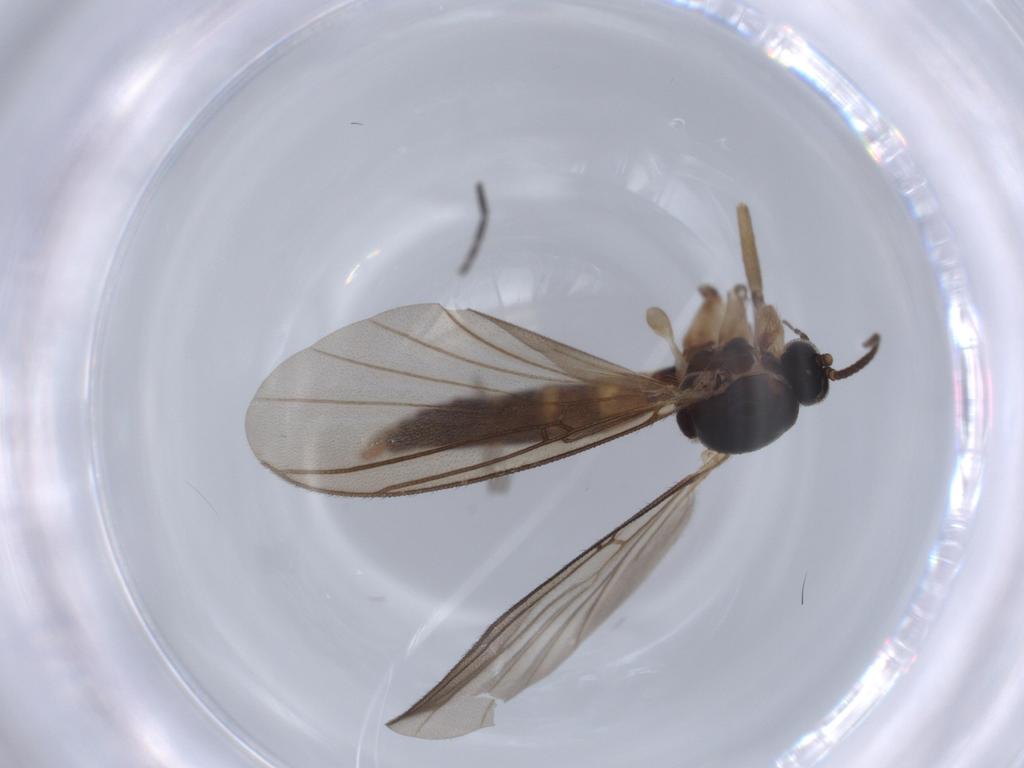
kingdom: Animalia
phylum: Arthropoda
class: Insecta
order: Diptera
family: Cecidomyiidae
